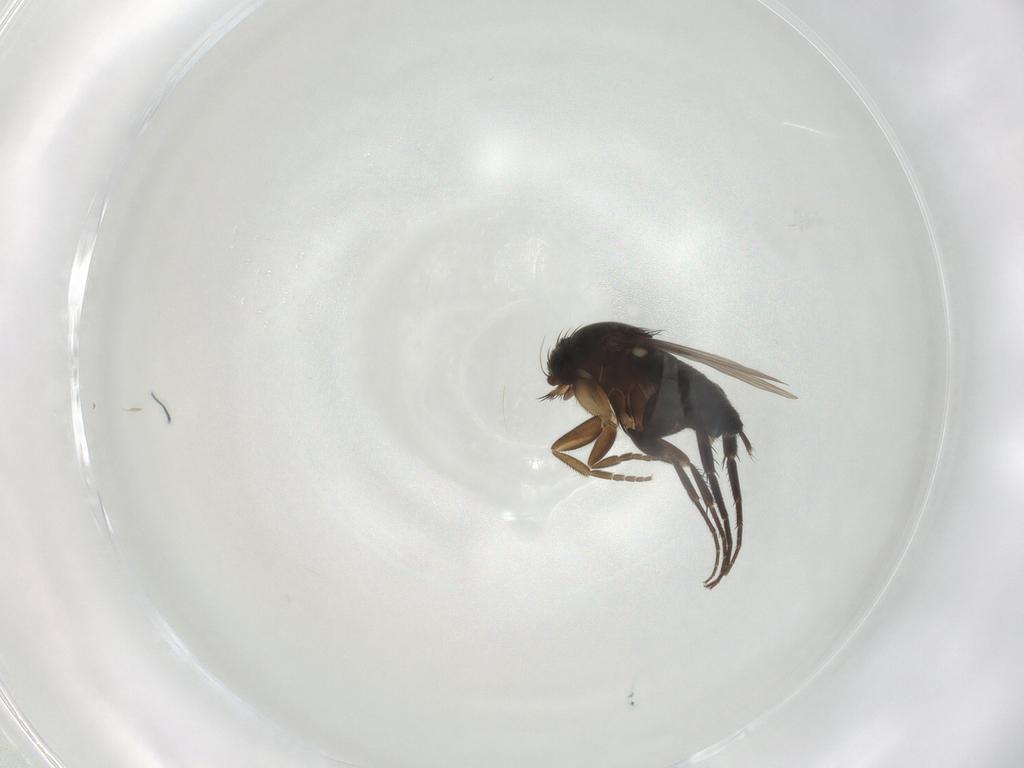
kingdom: Animalia
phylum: Arthropoda
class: Insecta
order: Diptera
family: Phoridae
